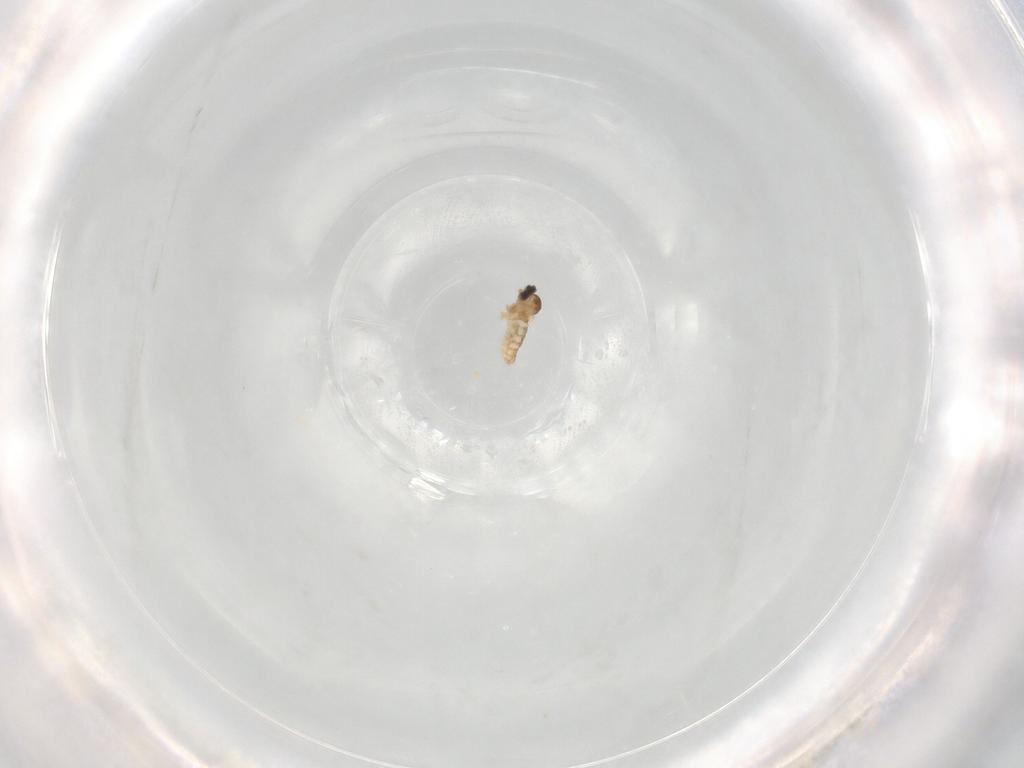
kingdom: Animalia
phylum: Arthropoda
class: Insecta
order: Diptera
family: Glossinidae
